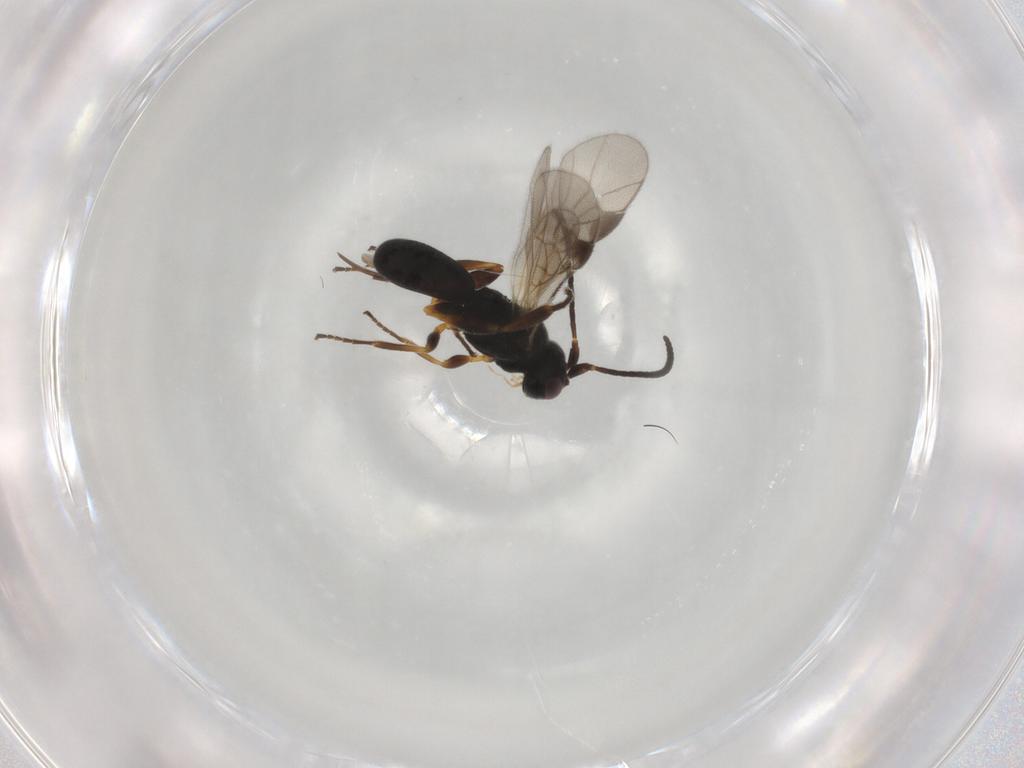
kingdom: Animalia
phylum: Arthropoda
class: Insecta
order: Hymenoptera
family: Braconidae
